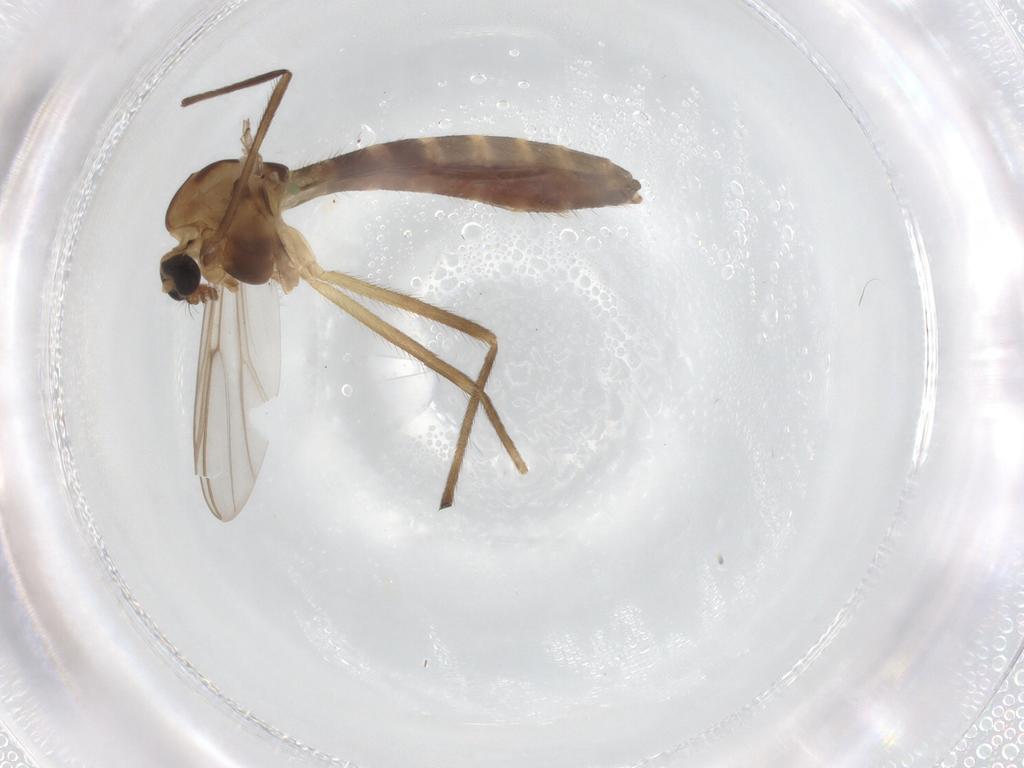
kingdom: Animalia
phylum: Arthropoda
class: Insecta
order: Diptera
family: Chironomidae
